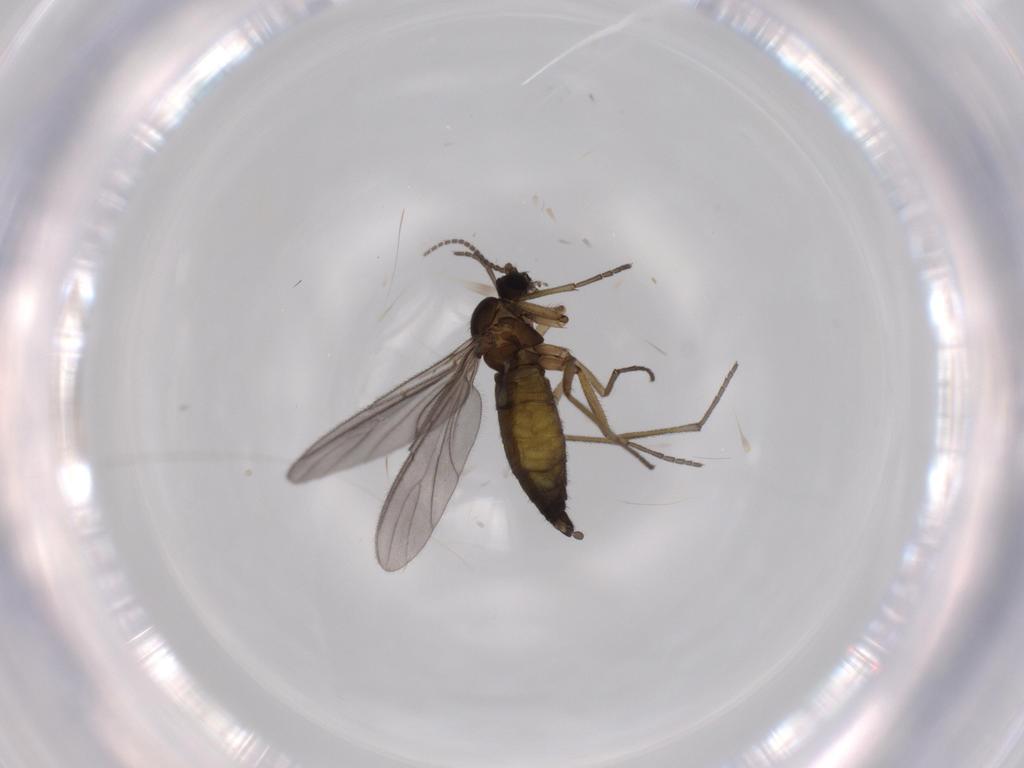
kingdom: Animalia
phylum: Arthropoda
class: Insecta
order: Diptera
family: Sciaridae
